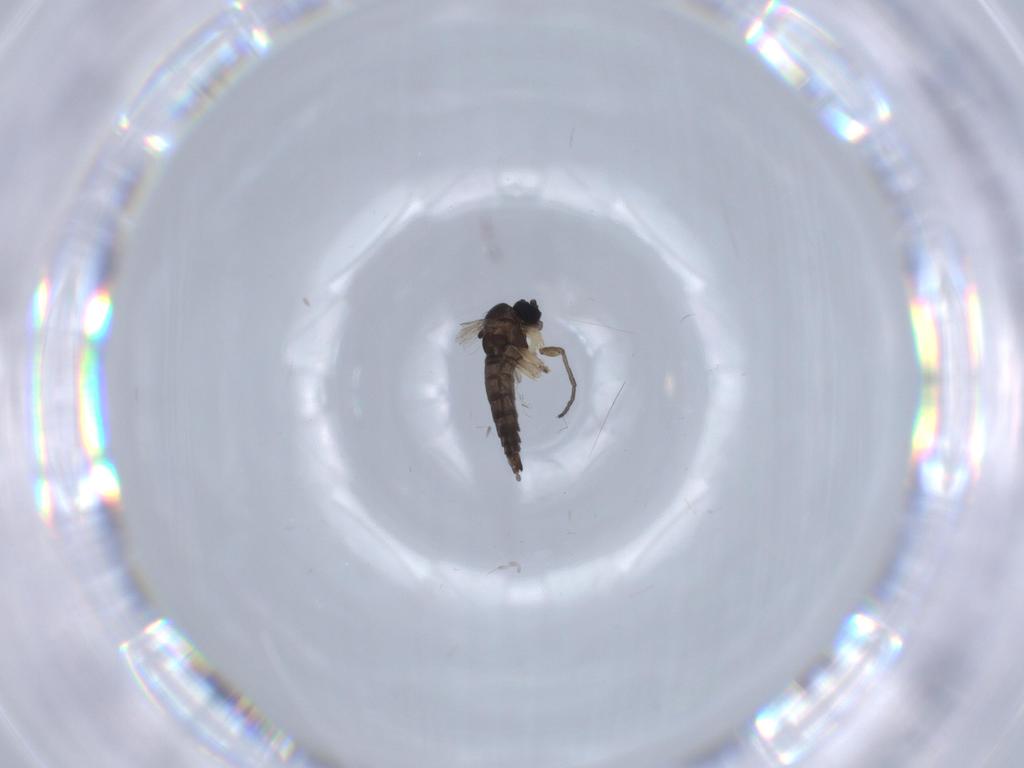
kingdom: Animalia
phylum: Arthropoda
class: Insecta
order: Diptera
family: Sciaridae
